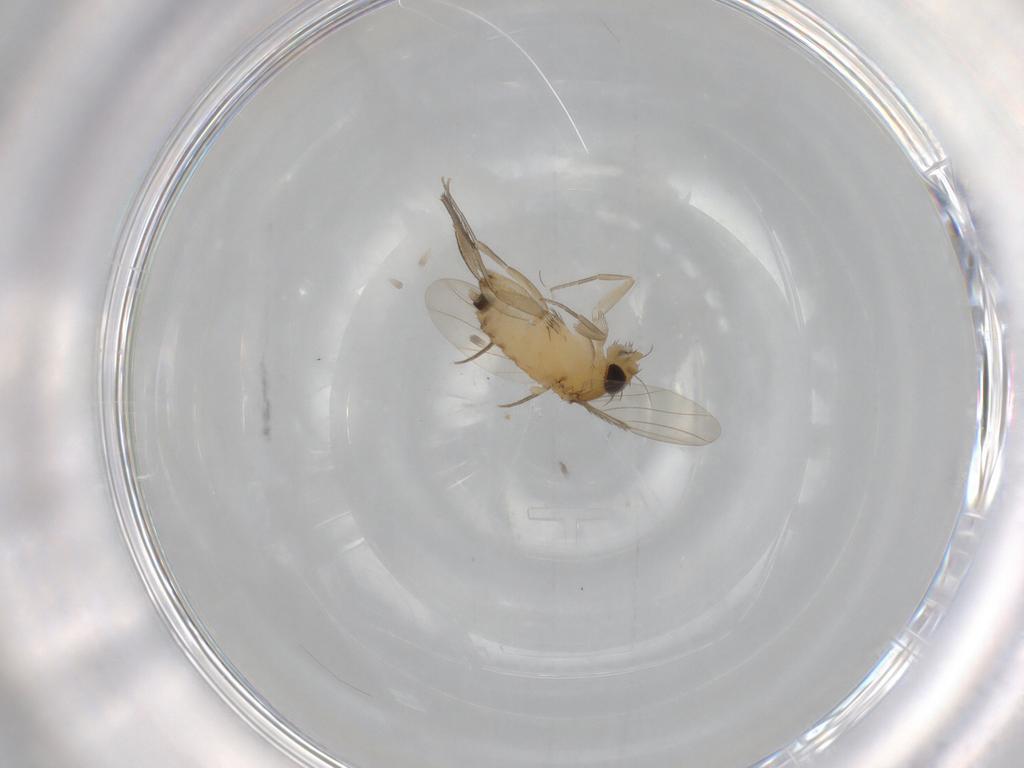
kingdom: Animalia
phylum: Arthropoda
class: Insecta
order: Diptera
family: Phoridae
